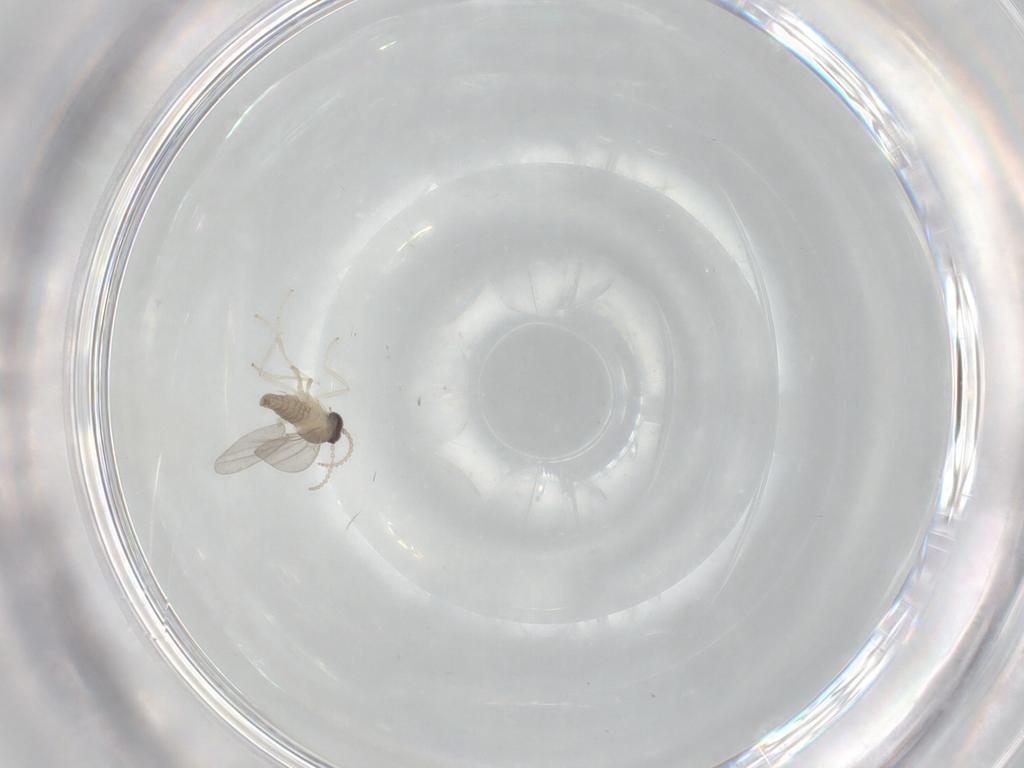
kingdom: Animalia
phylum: Arthropoda
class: Insecta
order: Diptera
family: Cecidomyiidae
